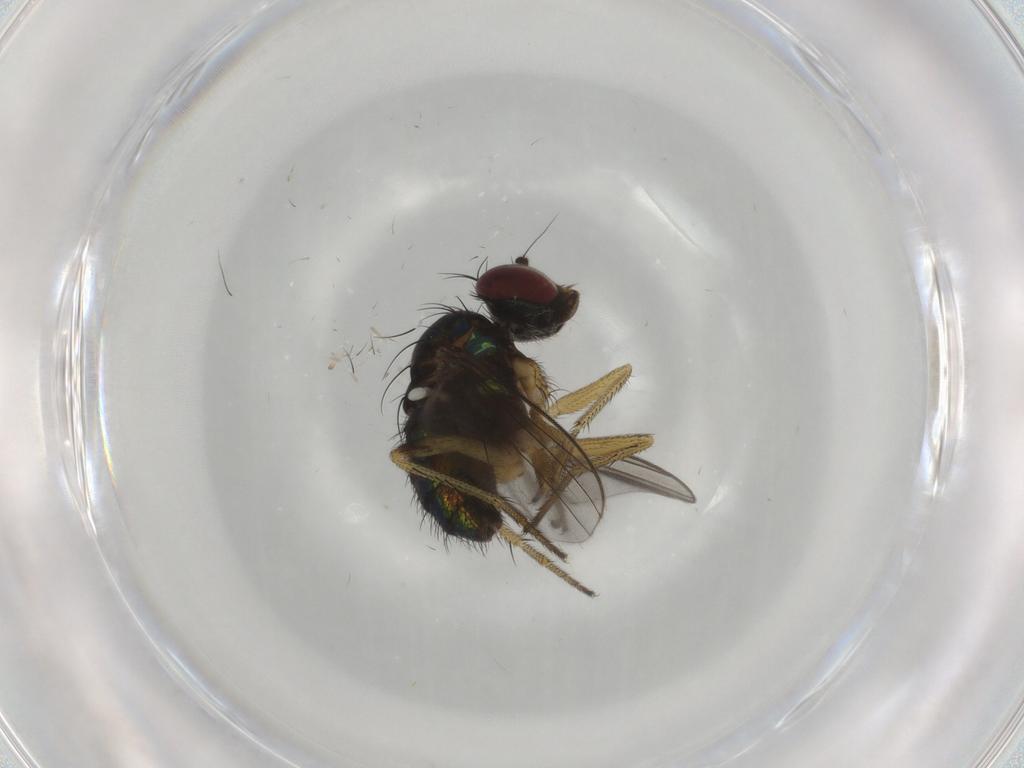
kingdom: Animalia
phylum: Arthropoda
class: Insecta
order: Diptera
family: Dolichopodidae
